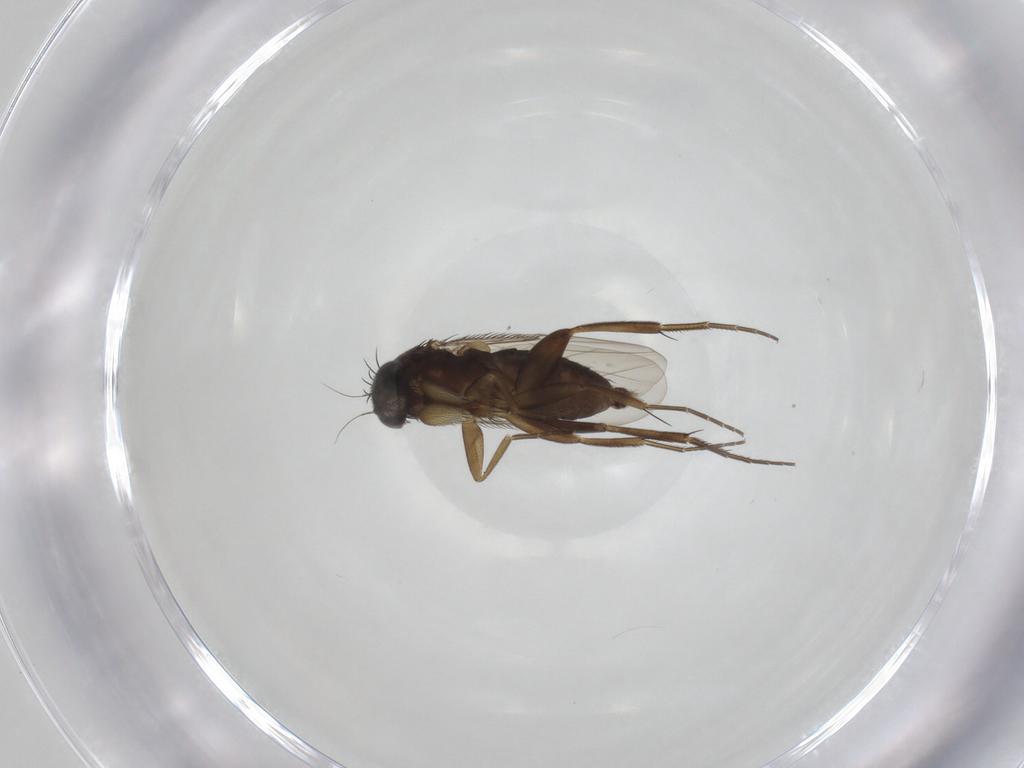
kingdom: Animalia
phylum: Arthropoda
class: Insecta
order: Diptera
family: Phoridae
